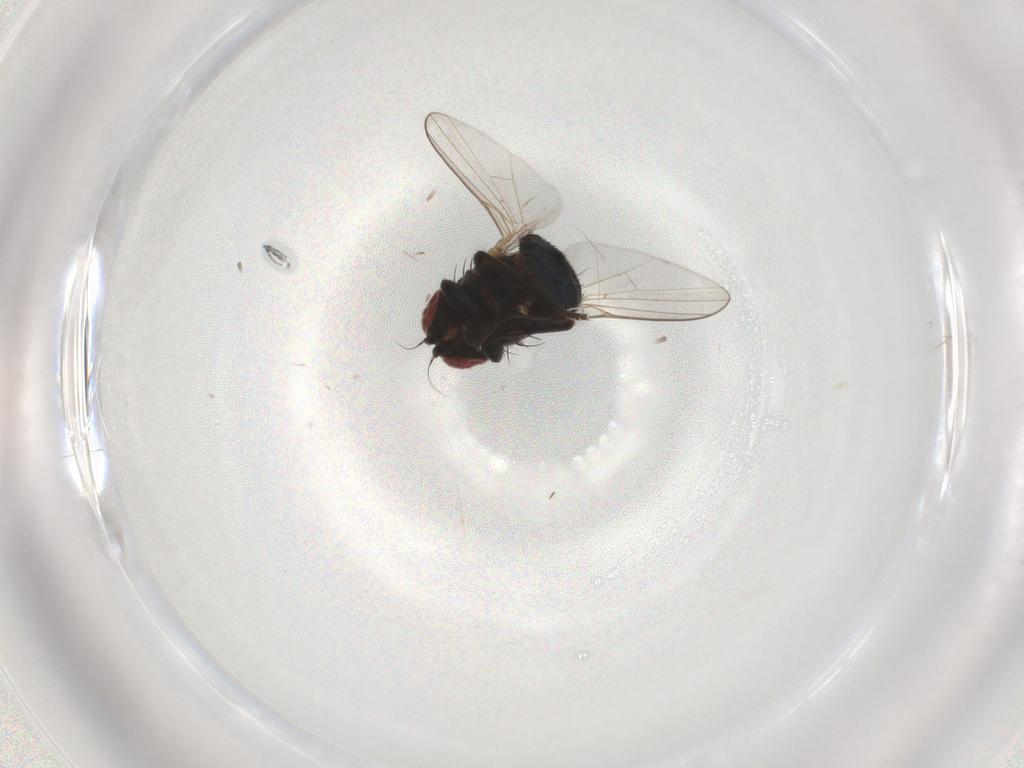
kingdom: Animalia
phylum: Arthropoda
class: Insecta
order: Diptera
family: Agromyzidae
